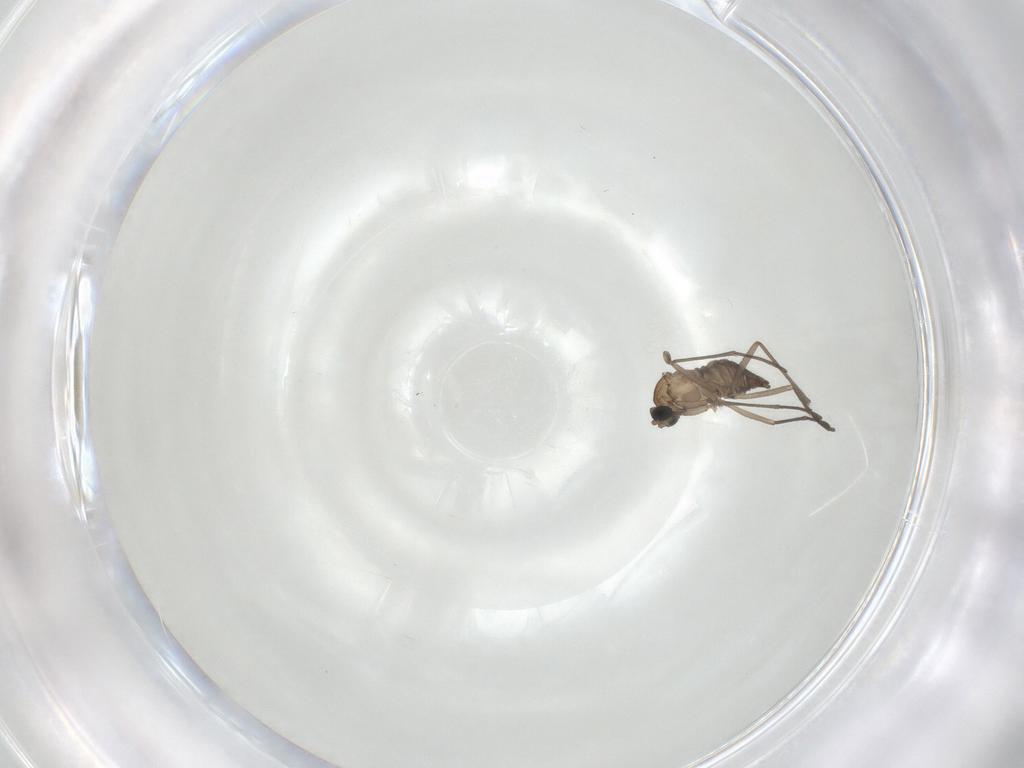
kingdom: Animalia
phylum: Arthropoda
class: Insecta
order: Diptera
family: Sciaridae
